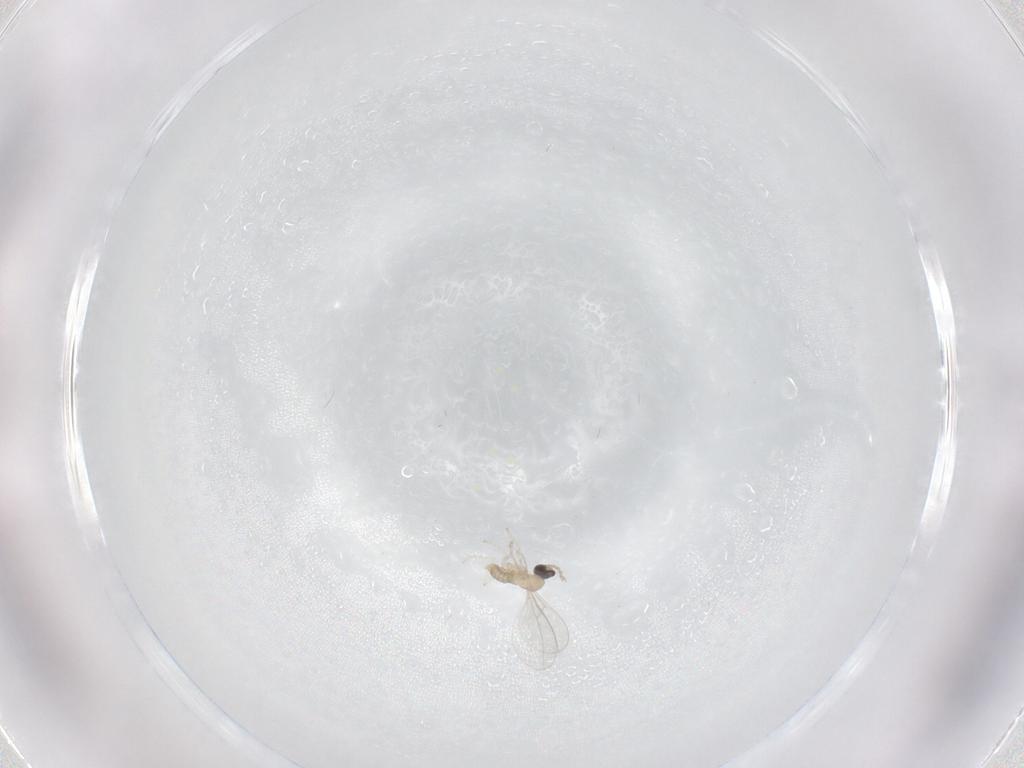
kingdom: Animalia
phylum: Arthropoda
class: Insecta
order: Diptera
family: Cecidomyiidae
